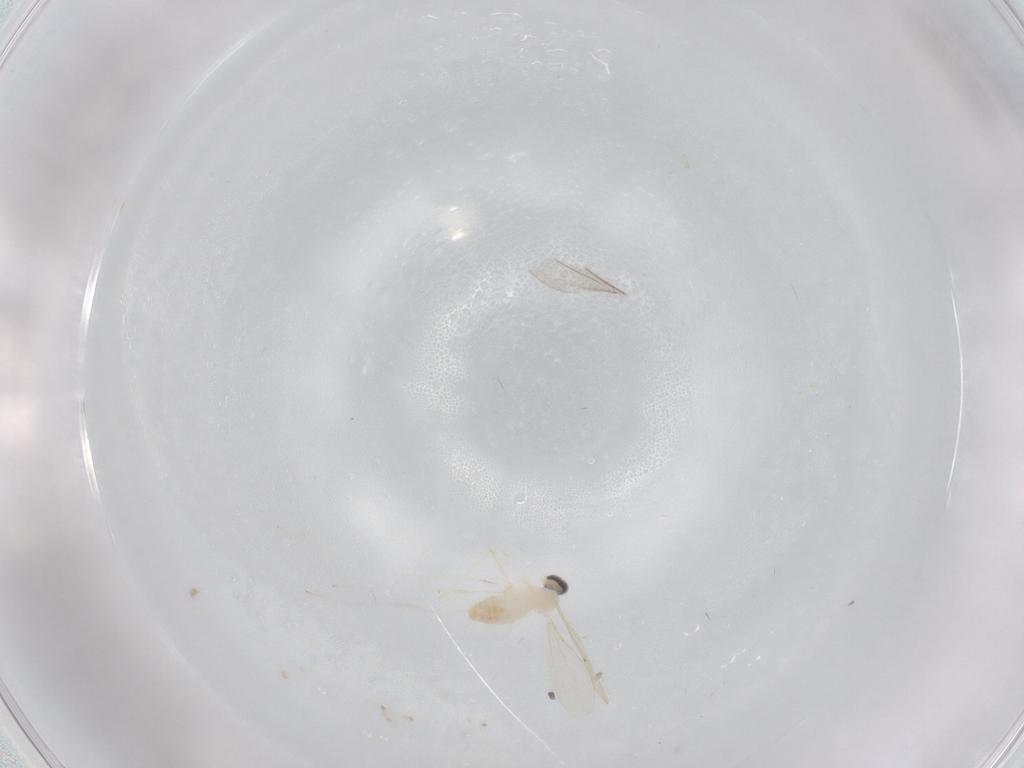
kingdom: Animalia
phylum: Arthropoda
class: Insecta
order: Diptera
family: Cecidomyiidae
